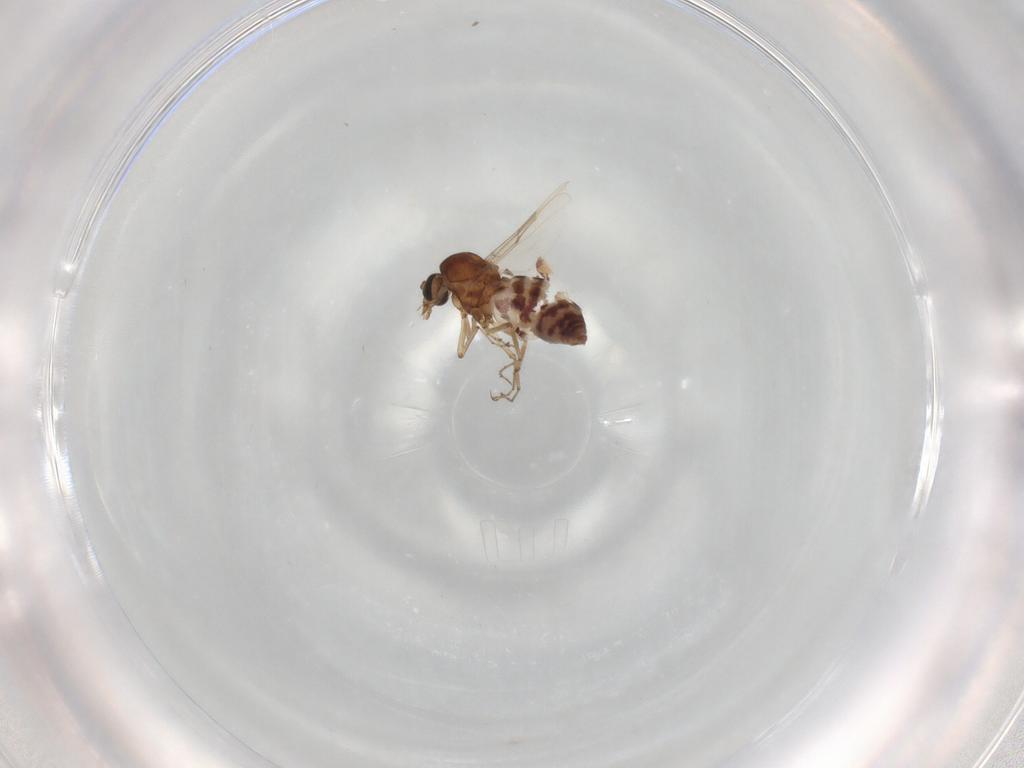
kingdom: Animalia
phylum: Arthropoda
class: Insecta
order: Diptera
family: Ceratopogonidae
